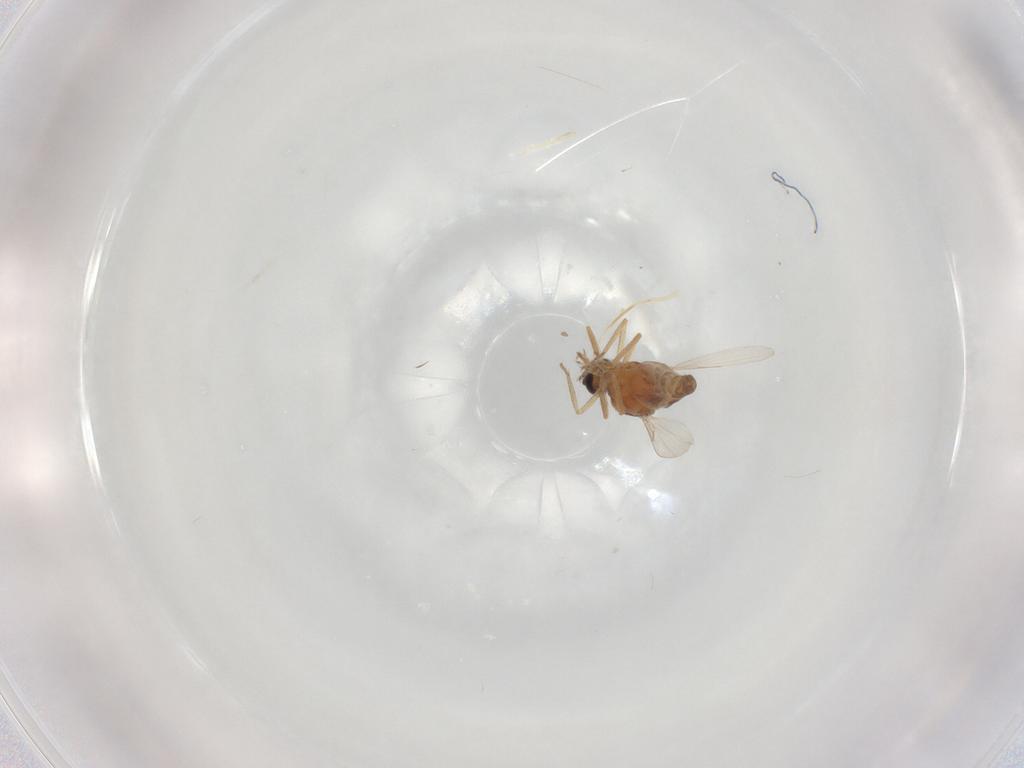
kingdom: Animalia
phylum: Arthropoda
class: Insecta
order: Diptera
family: Ceratopogonidae
